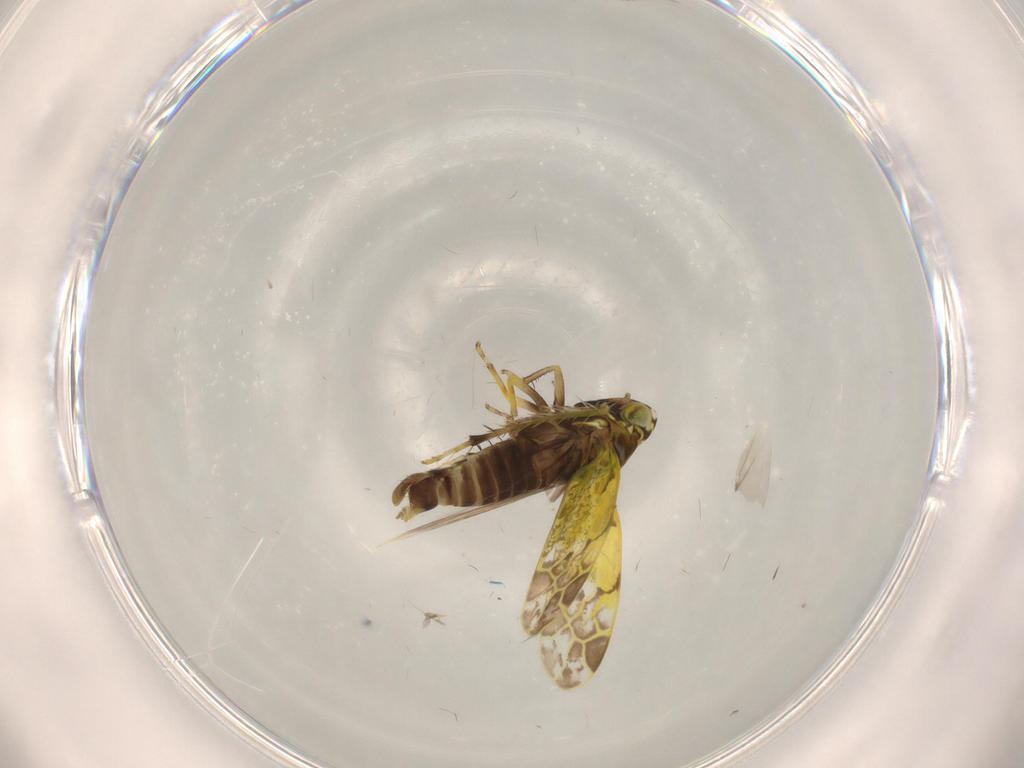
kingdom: Animalia
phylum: Arthropoda
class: Insecta
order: Hemiptera
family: Cicadellidae
